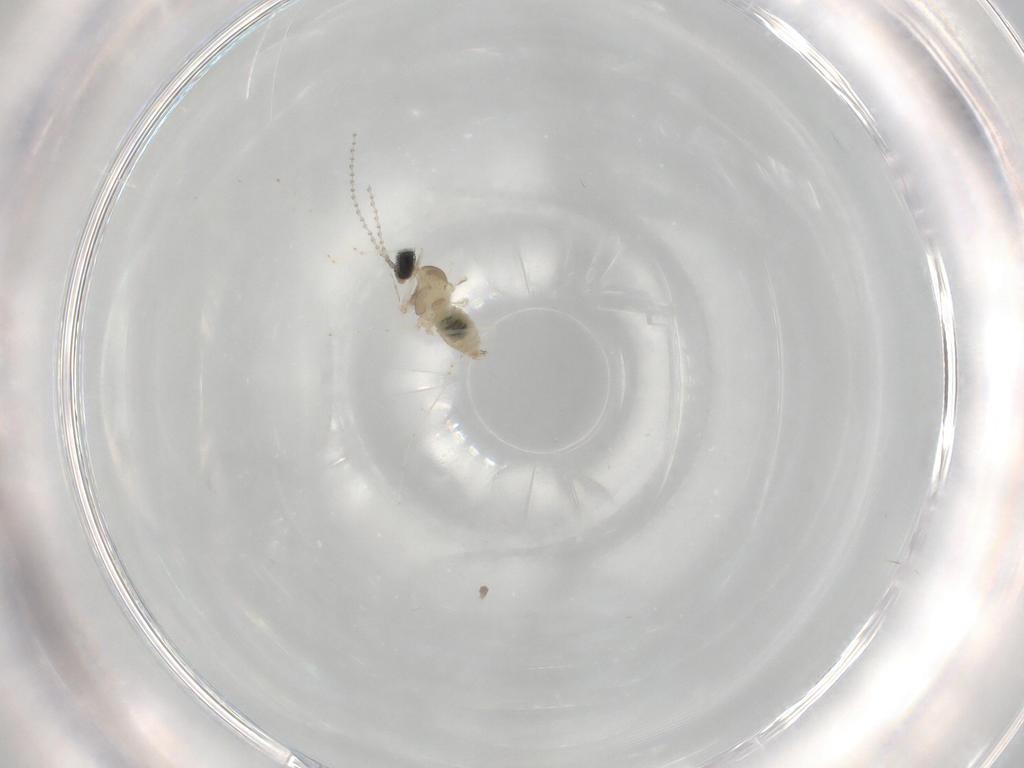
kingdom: Animalia
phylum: Arthropoda
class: Insecta
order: Diptera
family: Cecidomyiidae
